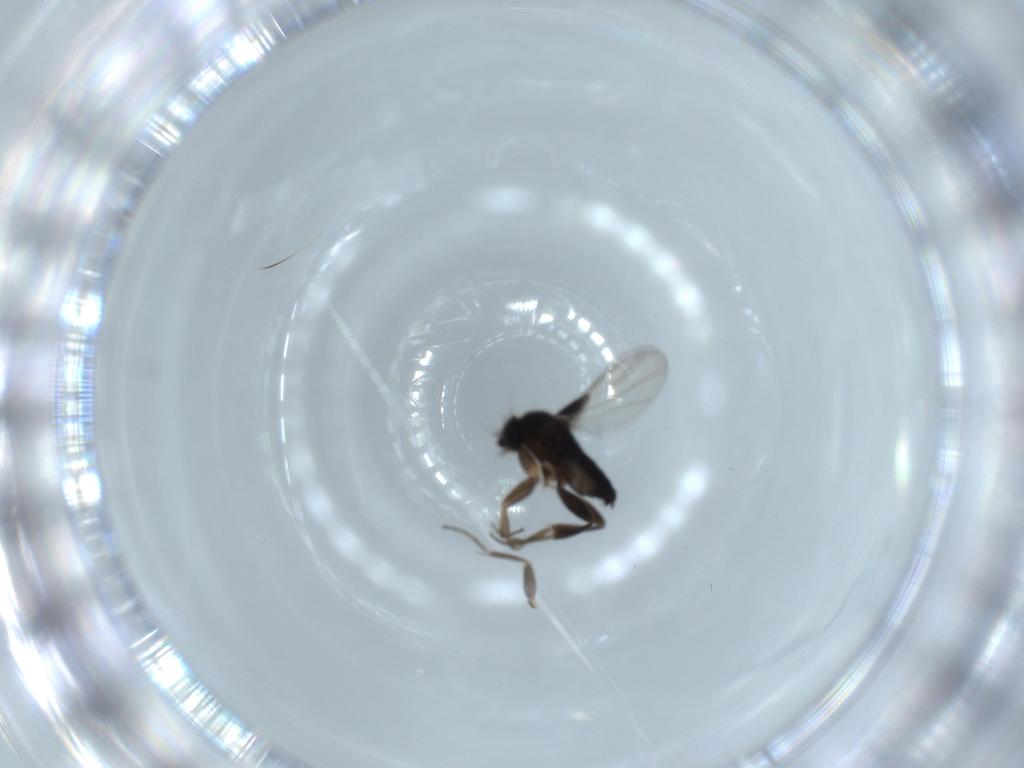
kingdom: Animalia
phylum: Arthropoda
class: Insecta
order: Diptera
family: Phoridae
